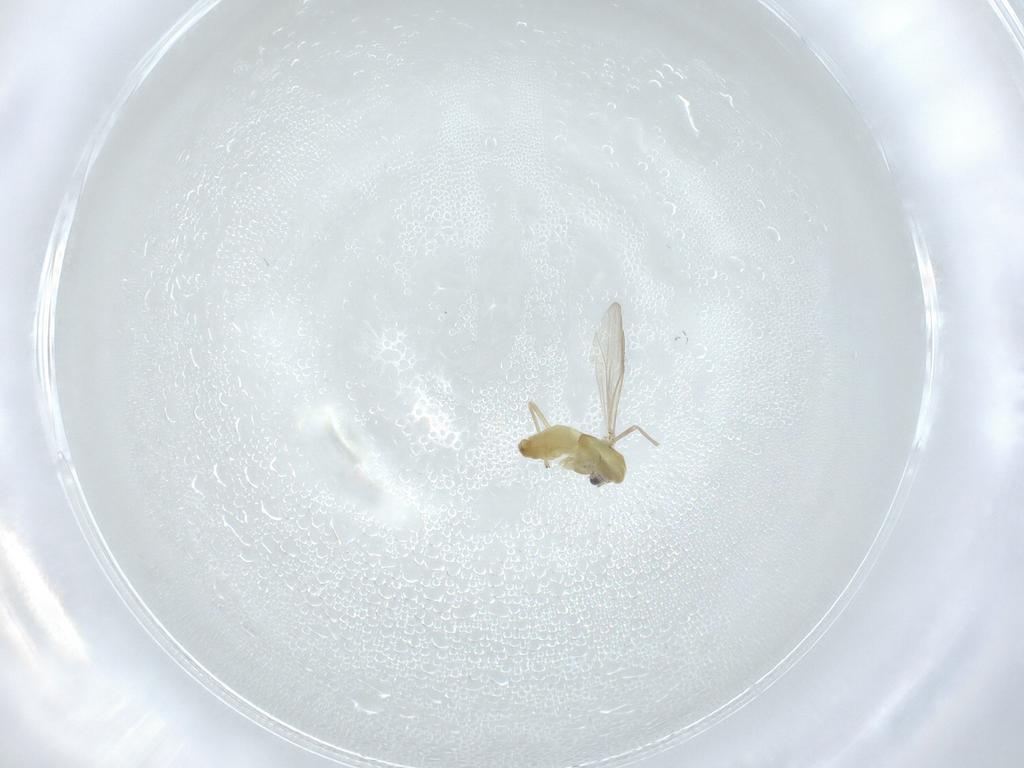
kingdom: Animalia
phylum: Arthropoda
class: Insecta
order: Diptera
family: Chironomidae
